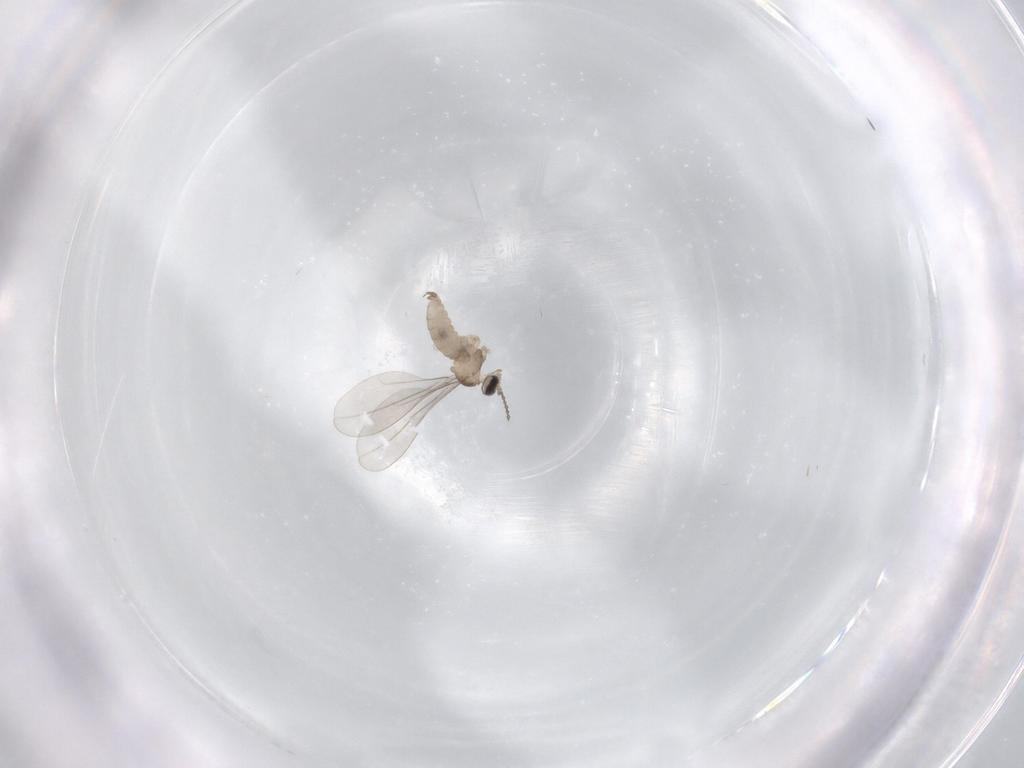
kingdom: Animalia
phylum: Arthropoda
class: Insecta
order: Diptera
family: Cecidomyiidae
